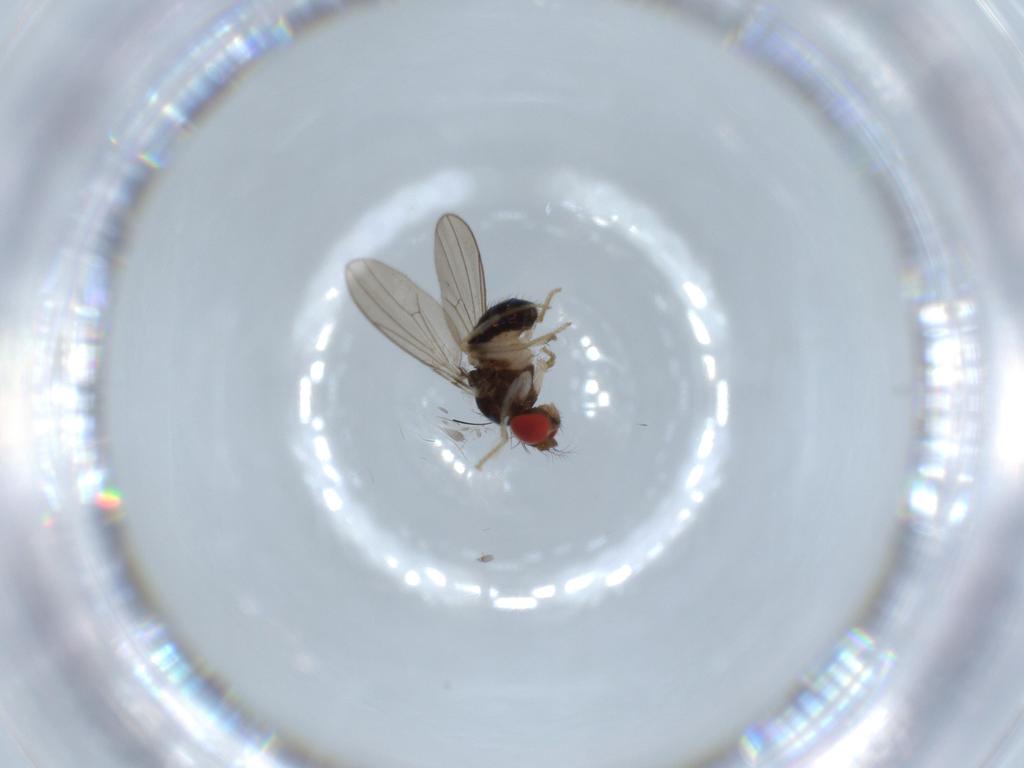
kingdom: Animalia
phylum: Arthropoda
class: Insecta
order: Diptera
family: Drosophilidae
